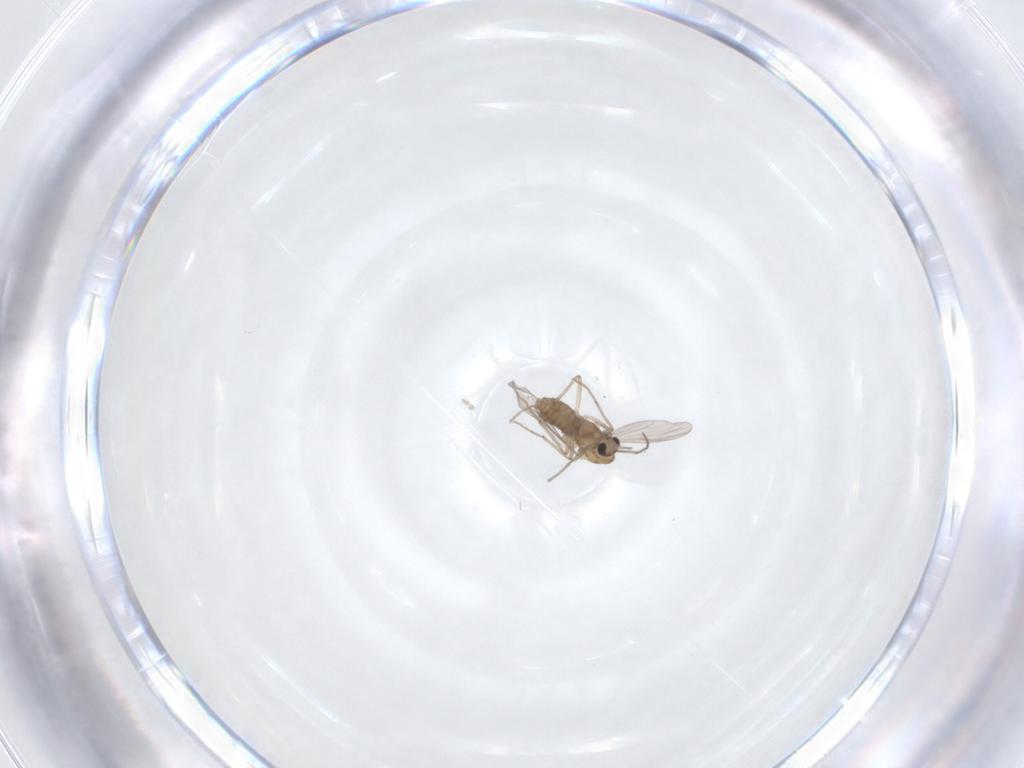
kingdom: Animalia
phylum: Arthropoda
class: Insecta
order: Diptera
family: Chironomidae
